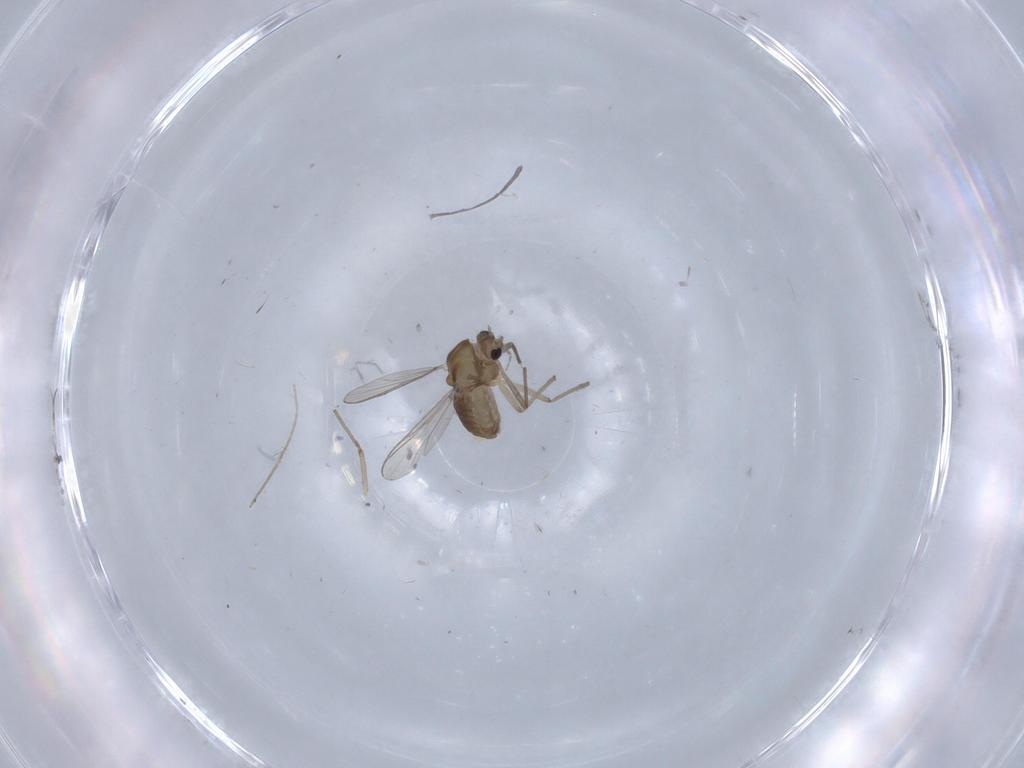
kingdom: Animalia
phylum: Arthropoda
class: Insecta
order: Diptera
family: Chironomidae
